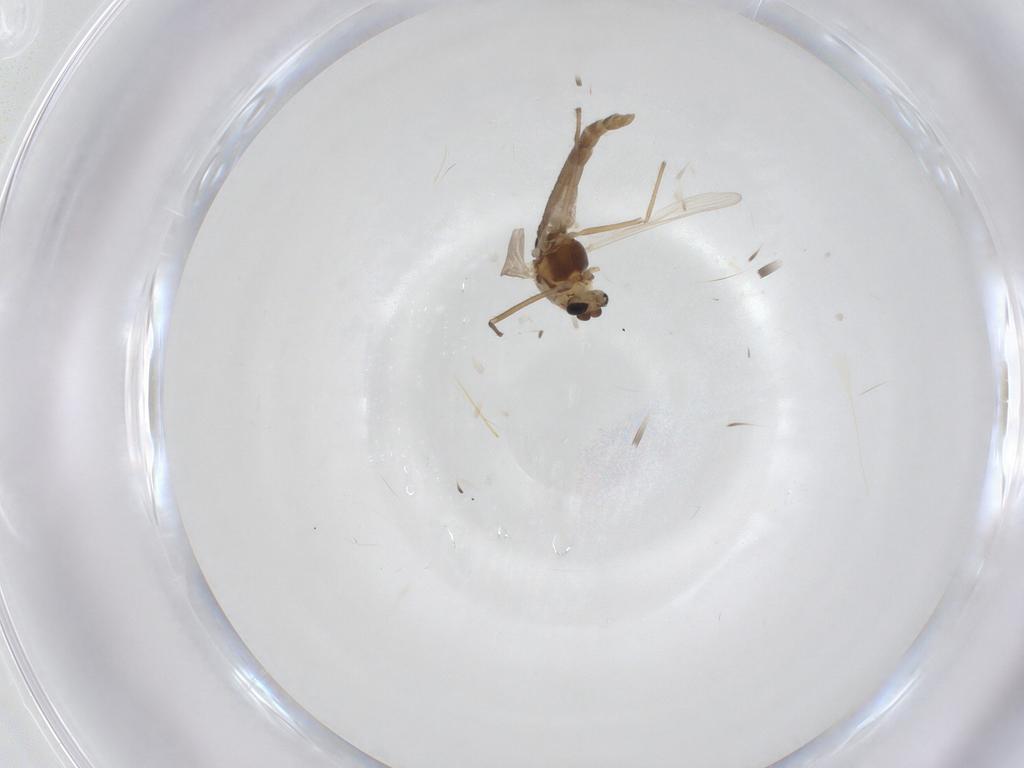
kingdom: Animalia
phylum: Arthropoda
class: Insecta
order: Diptera
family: Chironomidae
